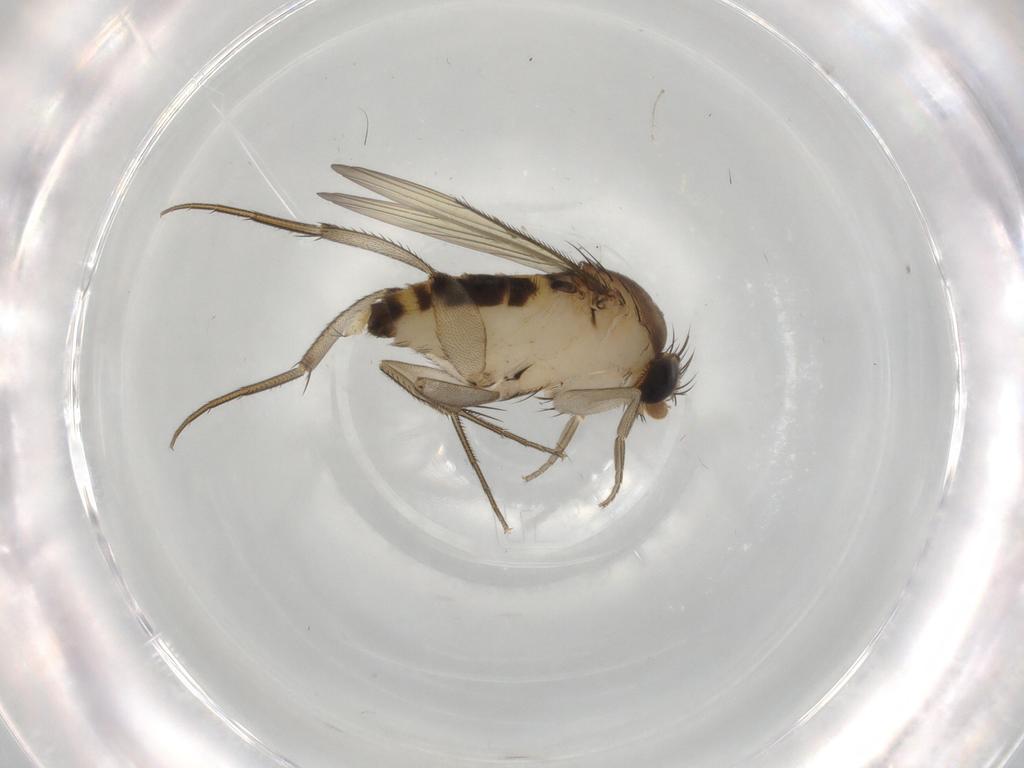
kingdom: Animalia
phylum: Arthropoda
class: Insecta
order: Diptera
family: Phoridae
